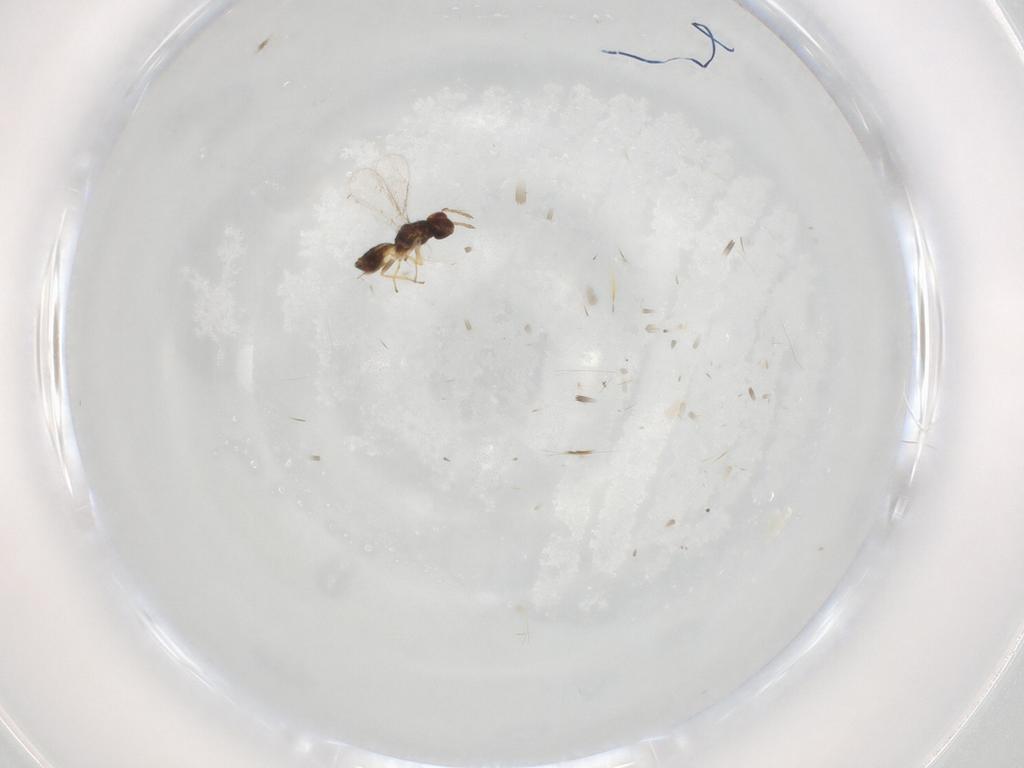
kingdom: Animalia
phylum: Arthropoda
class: Insecta
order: Hymenoptera
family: Eulophidae
